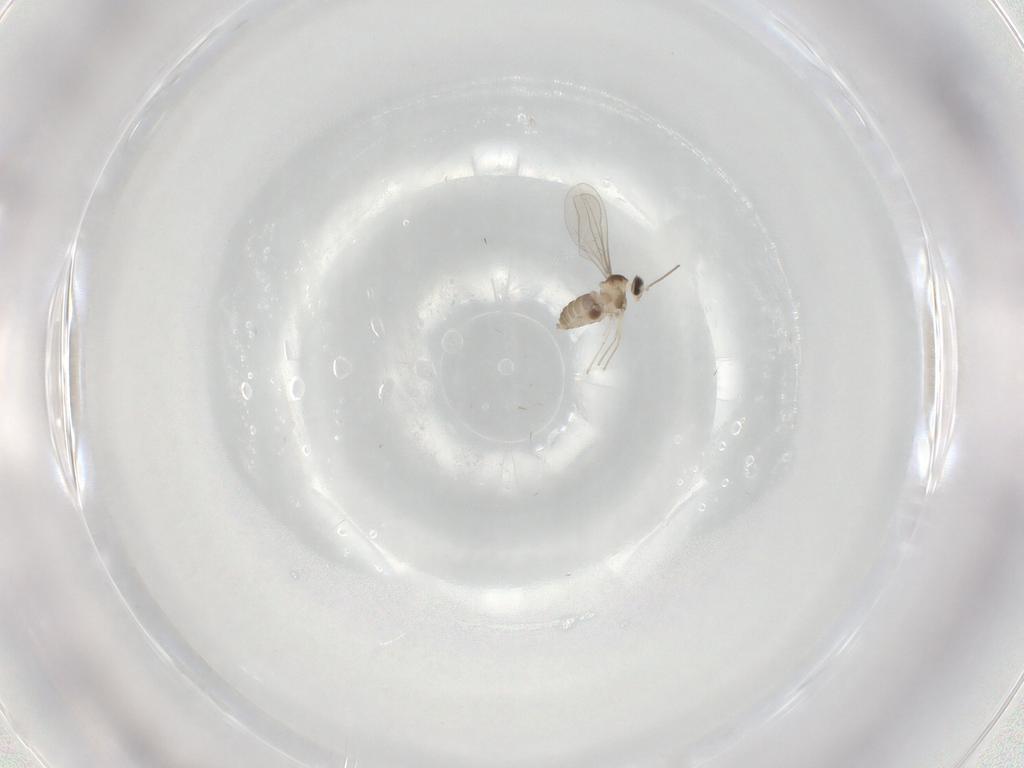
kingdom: Animalia
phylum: Arthropoda
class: Insecta
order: Diptera
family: Cecidomyiidae
